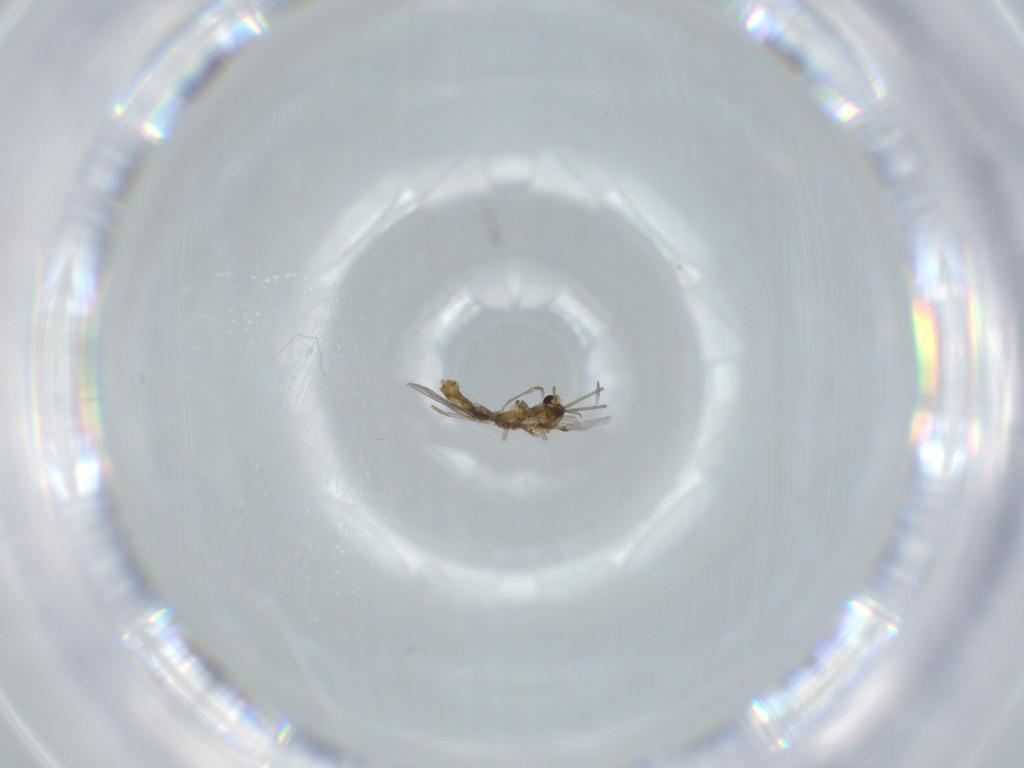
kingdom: Animalia
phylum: Arthropoda
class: Insecta
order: Diptera
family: Chironomidae
